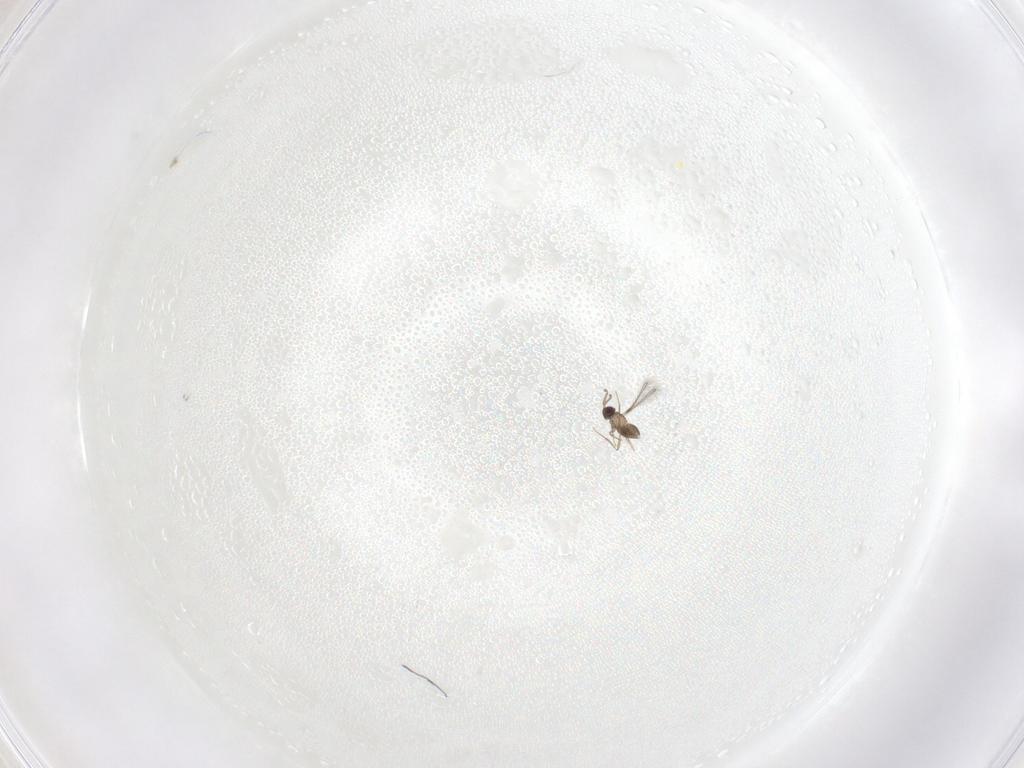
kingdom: Animalia
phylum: Arthropoda
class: Insecta
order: Hymenoptera
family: Mymaridae
